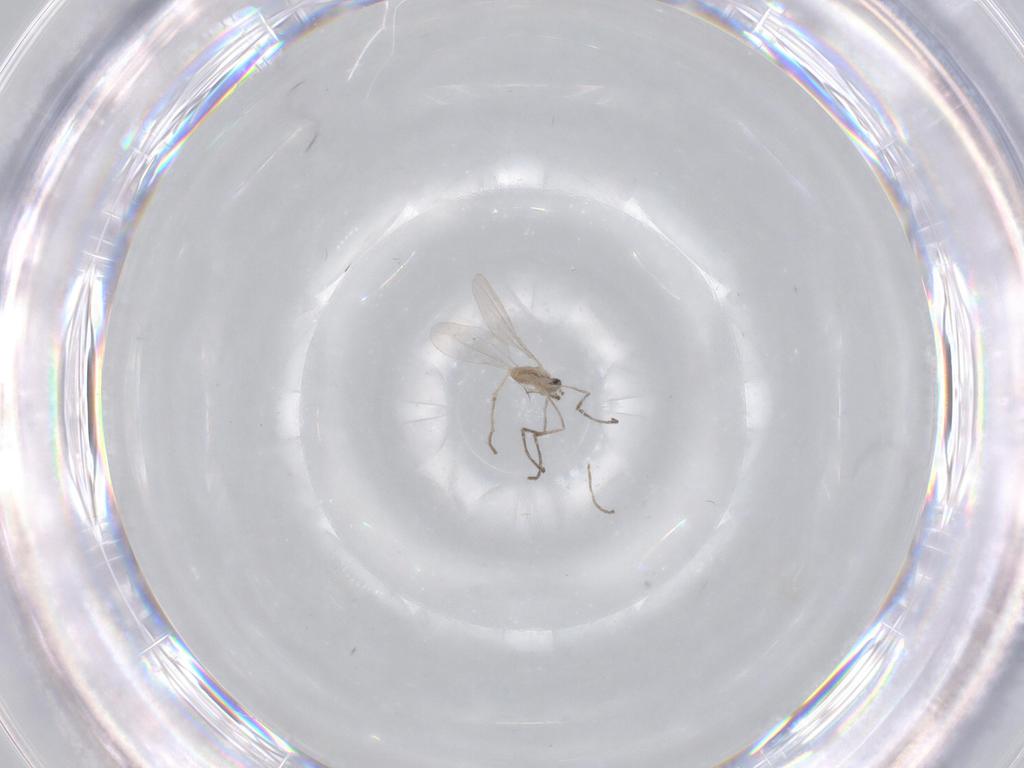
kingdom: Animalia
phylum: Arthropoda
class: Insecta
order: Diptera
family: Cecidomyiidae
